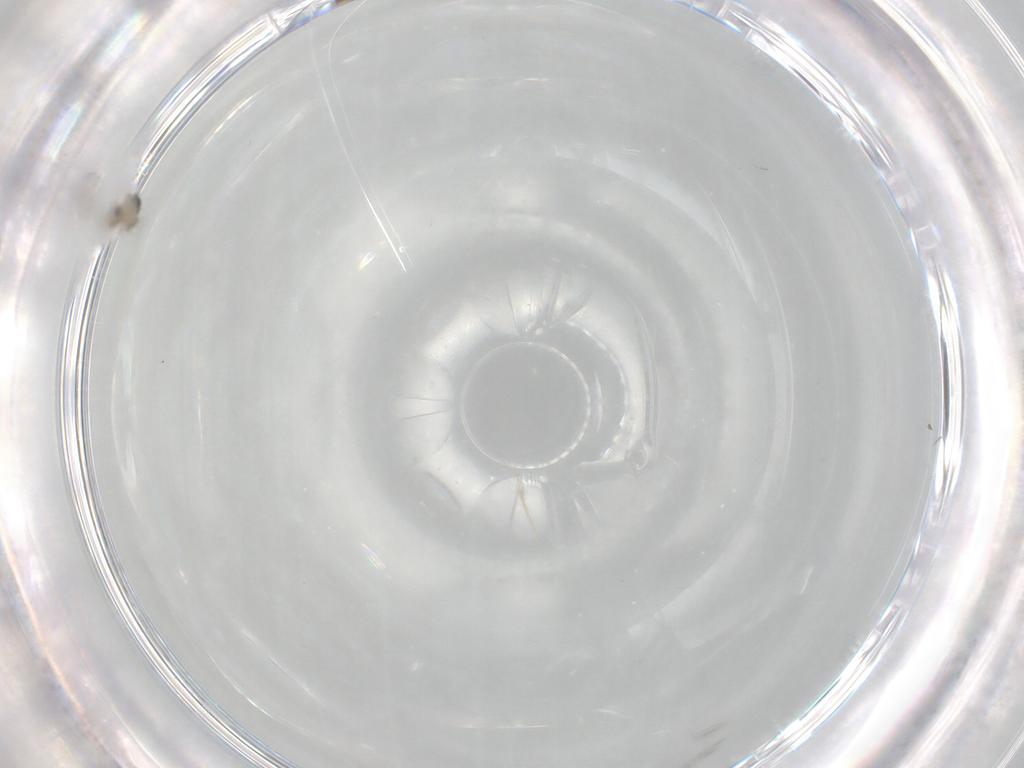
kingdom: Animalia
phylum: Arthropoda
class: Insecta
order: Diptera
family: Cecidomyiidae
